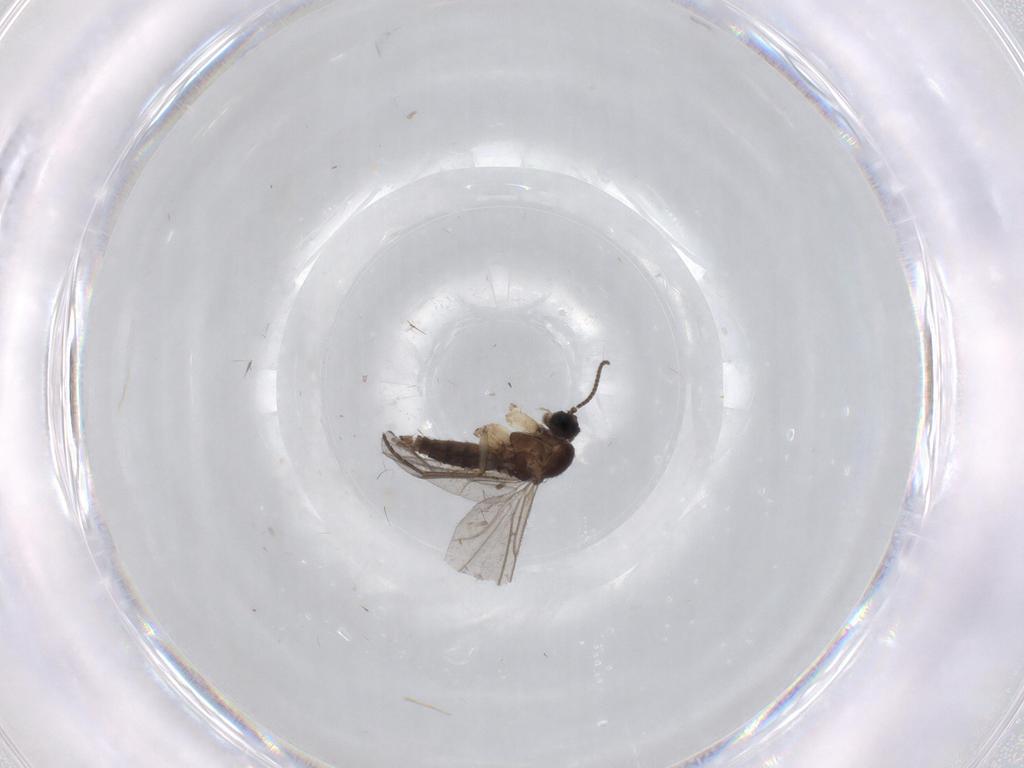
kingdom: Animalia
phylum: Arthropoda
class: Insecta
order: Diptera
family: Sciaridae
